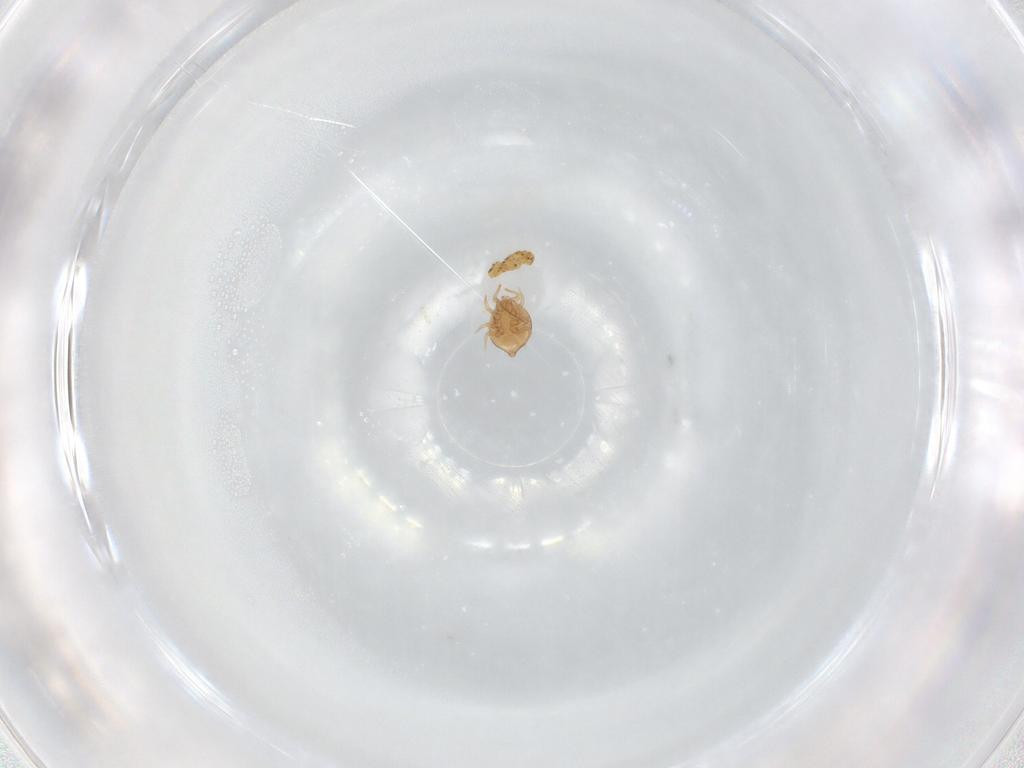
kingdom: Animalia
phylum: Arthropoda
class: Arachnida
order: Mesostigmata
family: Polyaspididae
